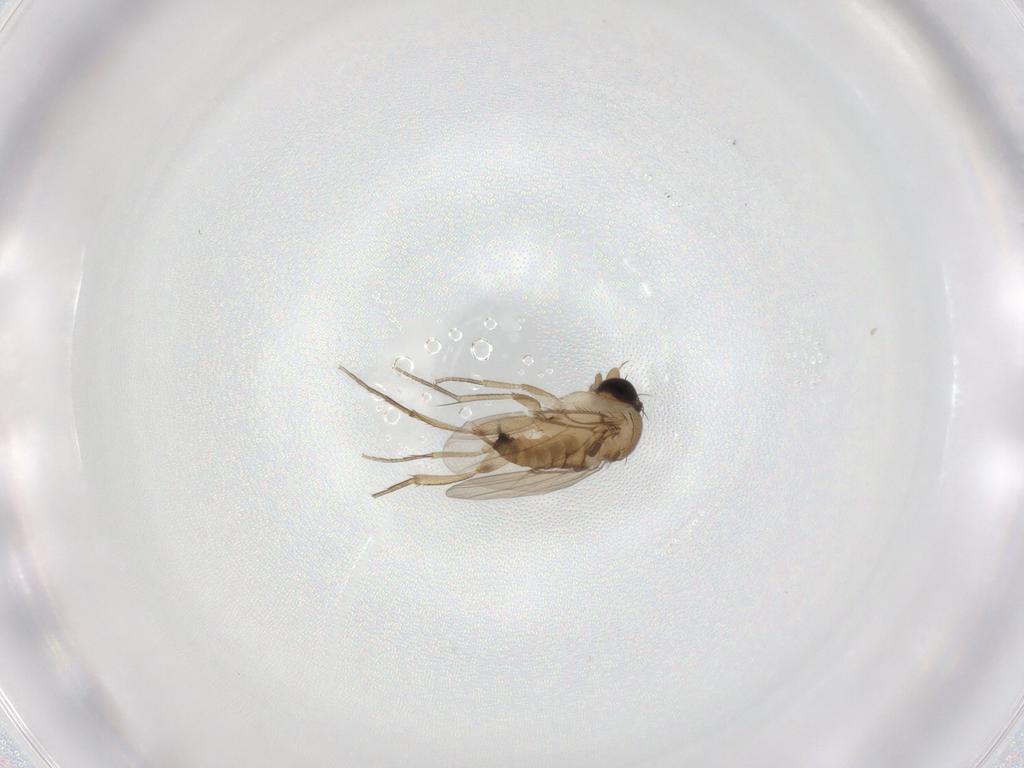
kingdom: Animalia
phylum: Arthropoda
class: Insecta
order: Diptera
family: Phoridae
